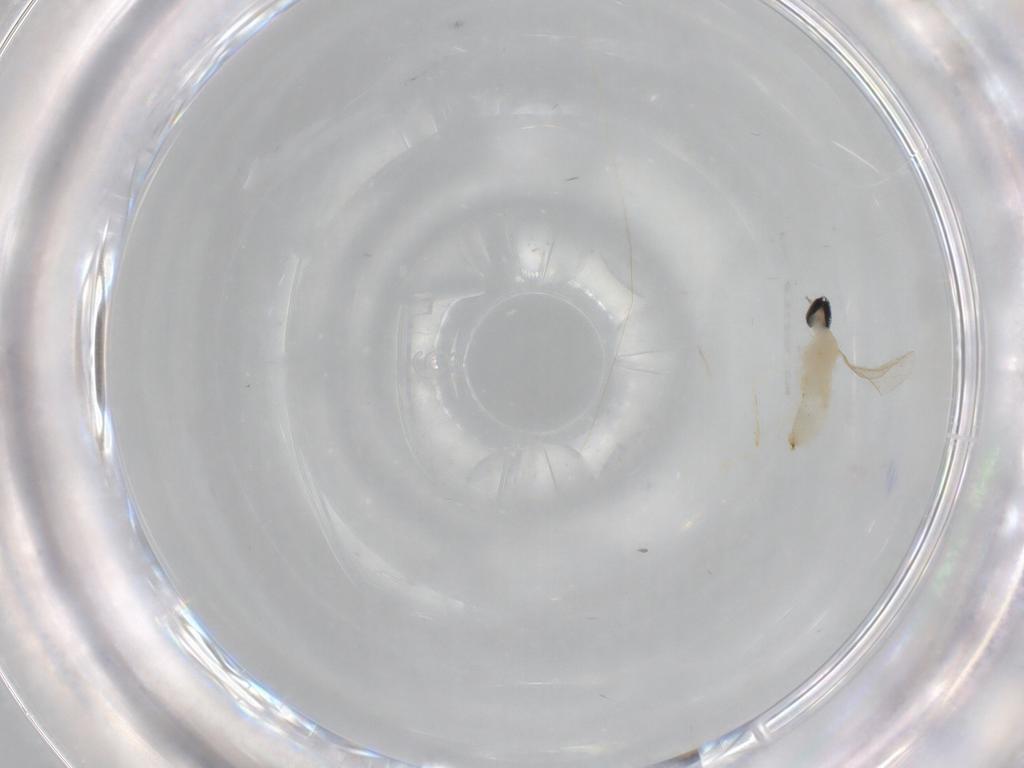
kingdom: Animalia
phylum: Arthropoda
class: Insecta
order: Diptera
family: Cecidomyiidae
